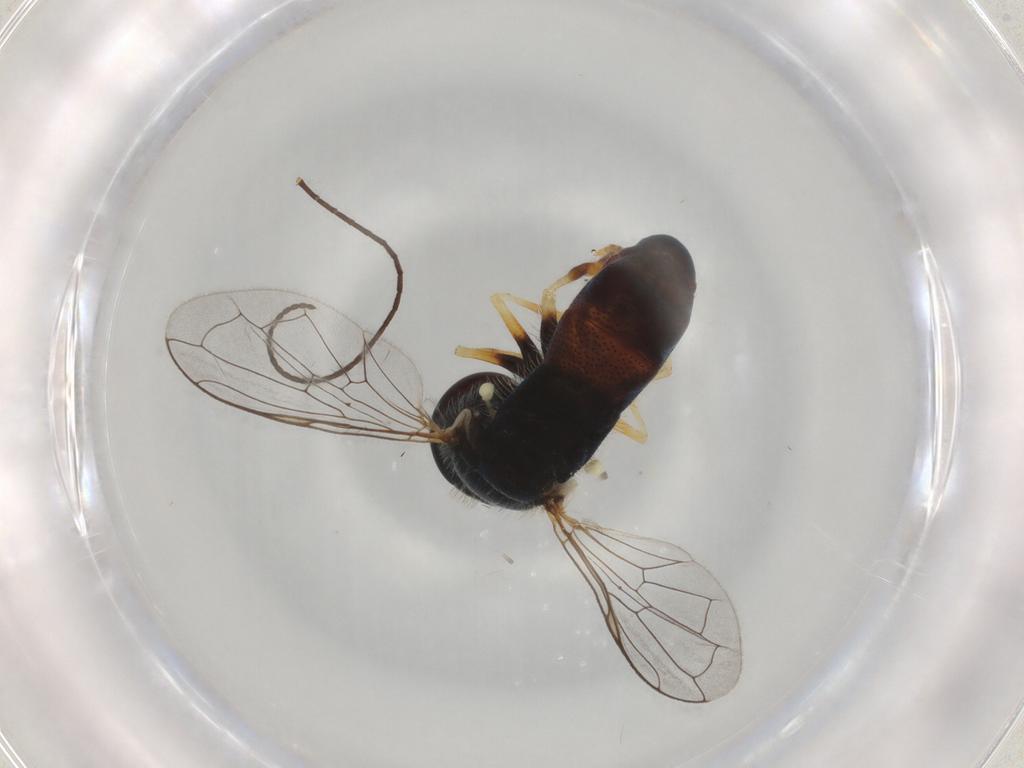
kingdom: Animalia
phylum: Arthropoda
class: Insecta
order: Diptera
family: Syrphidae
